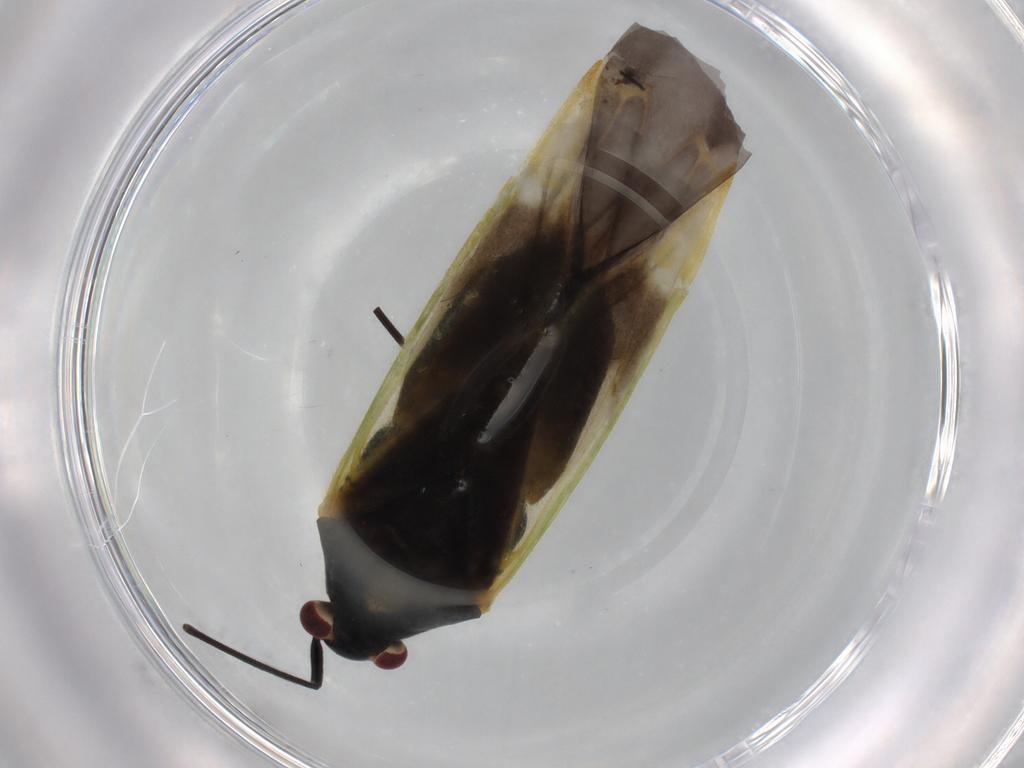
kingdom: Animalia
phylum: Arthropoda
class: Insecta
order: Hemiptera
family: Miridae
